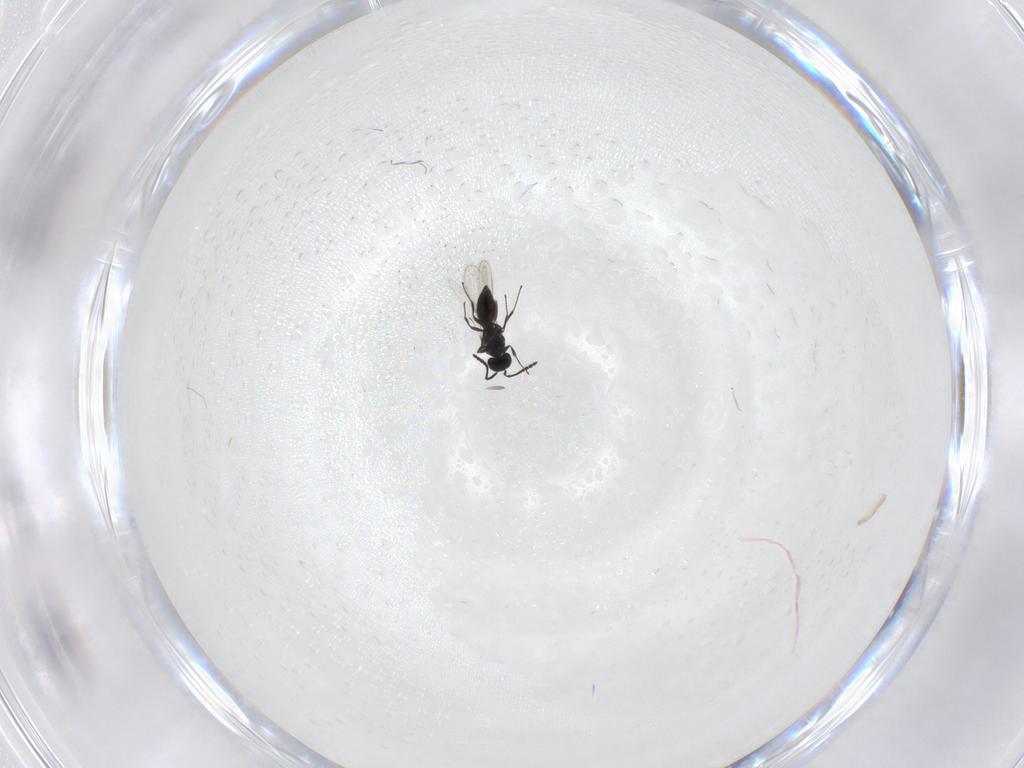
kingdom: Animalia
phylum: Arthropoda
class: Insecta
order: Hymenoptera
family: Scelionidae
